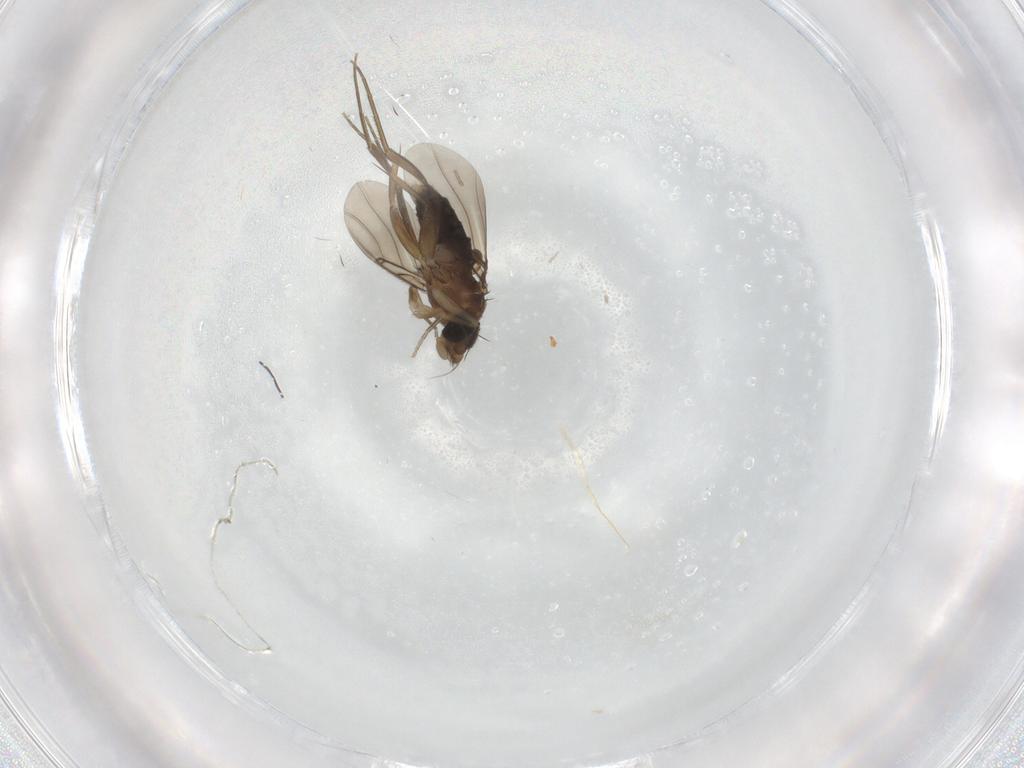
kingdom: Animalia
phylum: Arthropoda
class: Insecta
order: Diptera
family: Phoridae
